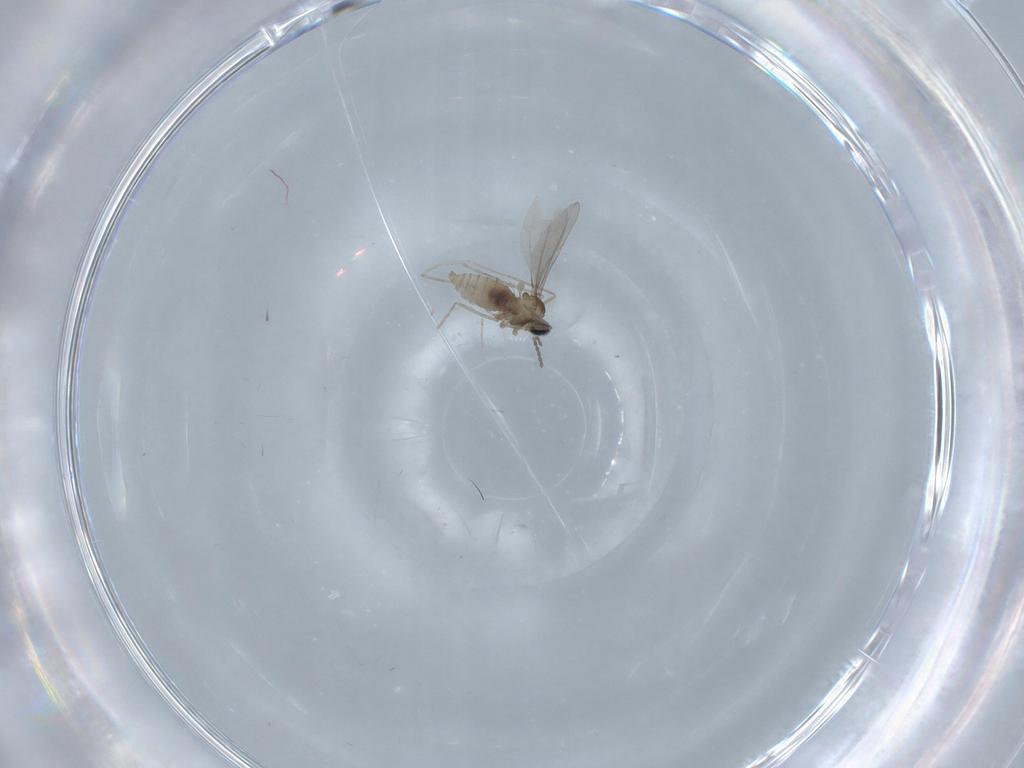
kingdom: Animalia
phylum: Arthropoda
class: Insecta
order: Diptera
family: Cecidomyiidae
